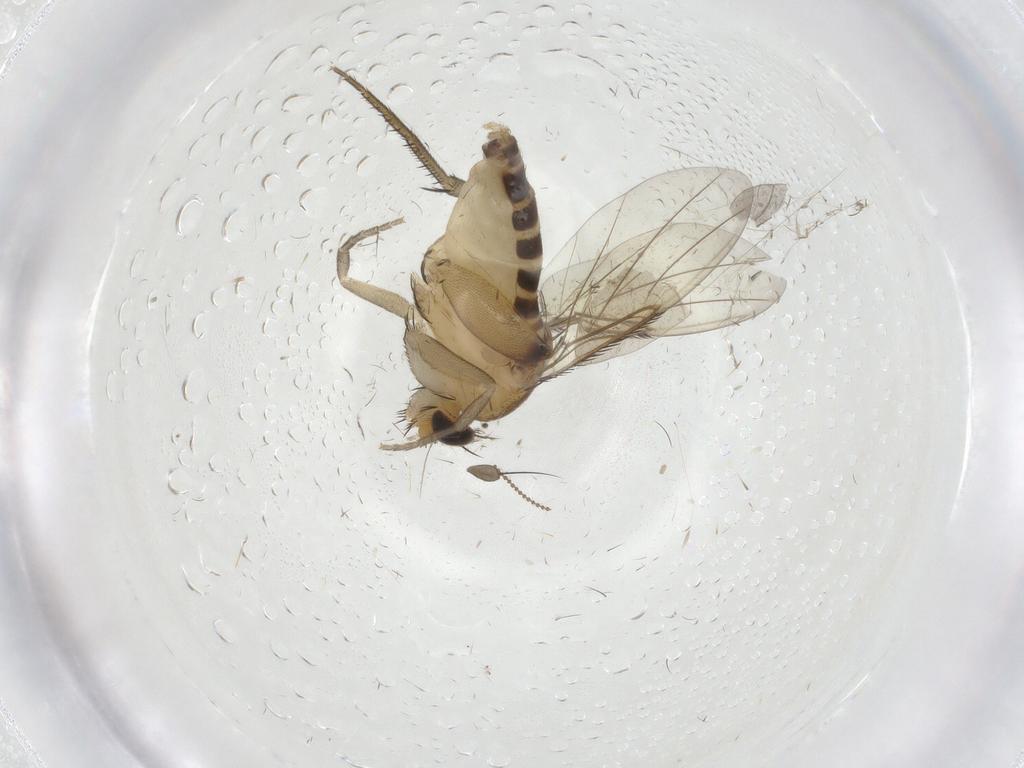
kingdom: Animalia
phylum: Arthropoda
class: Insecta
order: Diptera
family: Phoridae
